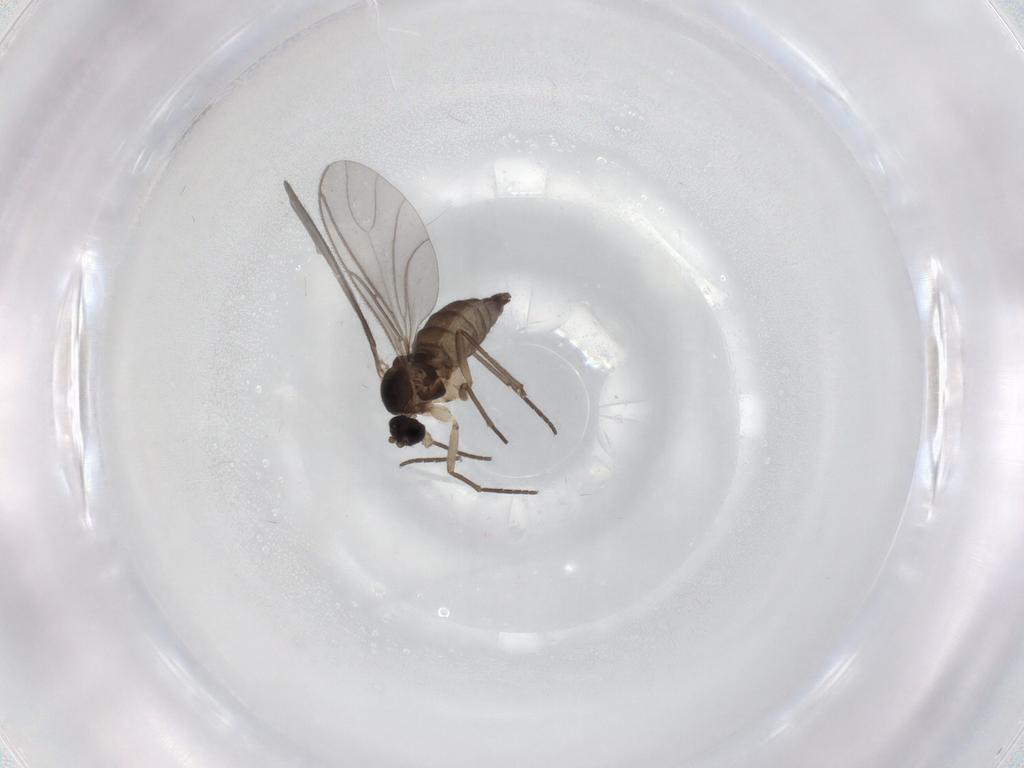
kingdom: Animalia
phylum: Arthropoda
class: Insecta
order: Diptera
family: Sciaridae
